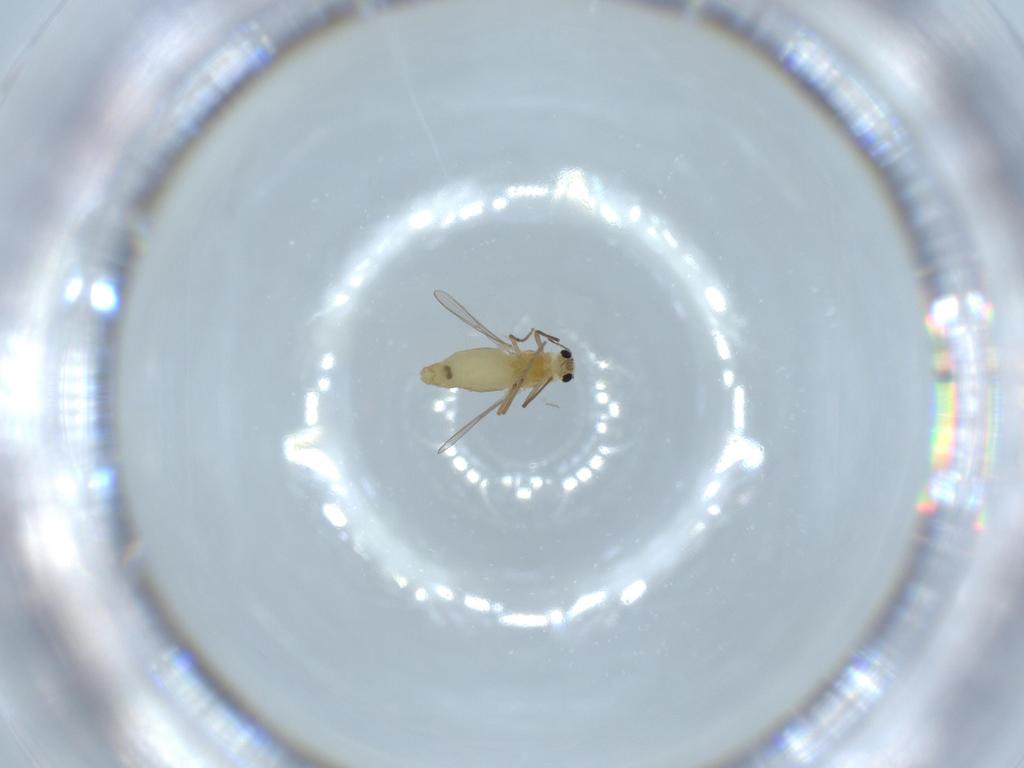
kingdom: Animalia
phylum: Arthropoda
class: Insecta
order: Diptera
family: Chironomidae
